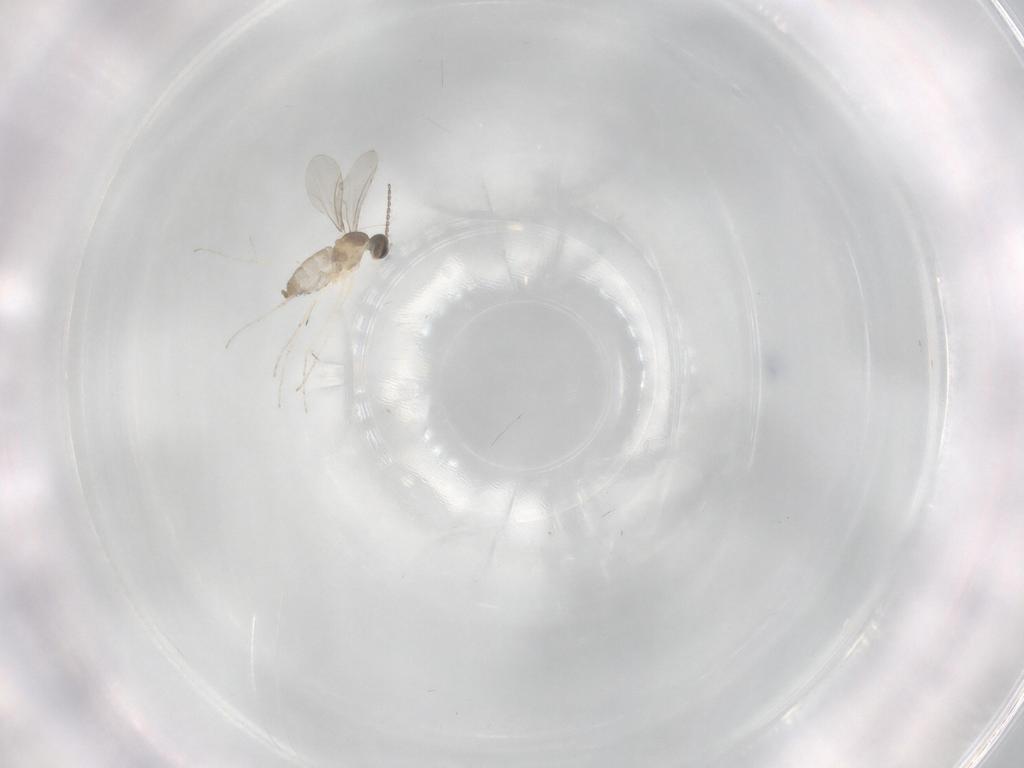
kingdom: Animalia
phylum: Arthropoda
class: Insecta
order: Diptera
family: Cecidomyiidae
